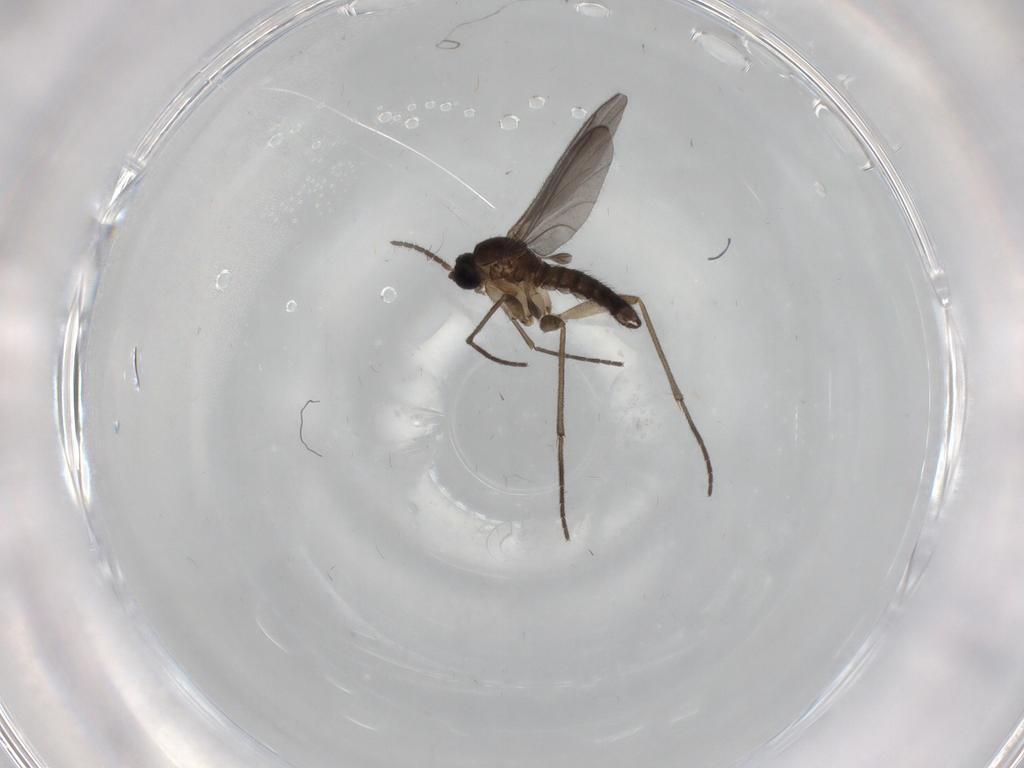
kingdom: Animalia
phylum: Arthropoda
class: Insecta
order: Diptera
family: Sciaridae
